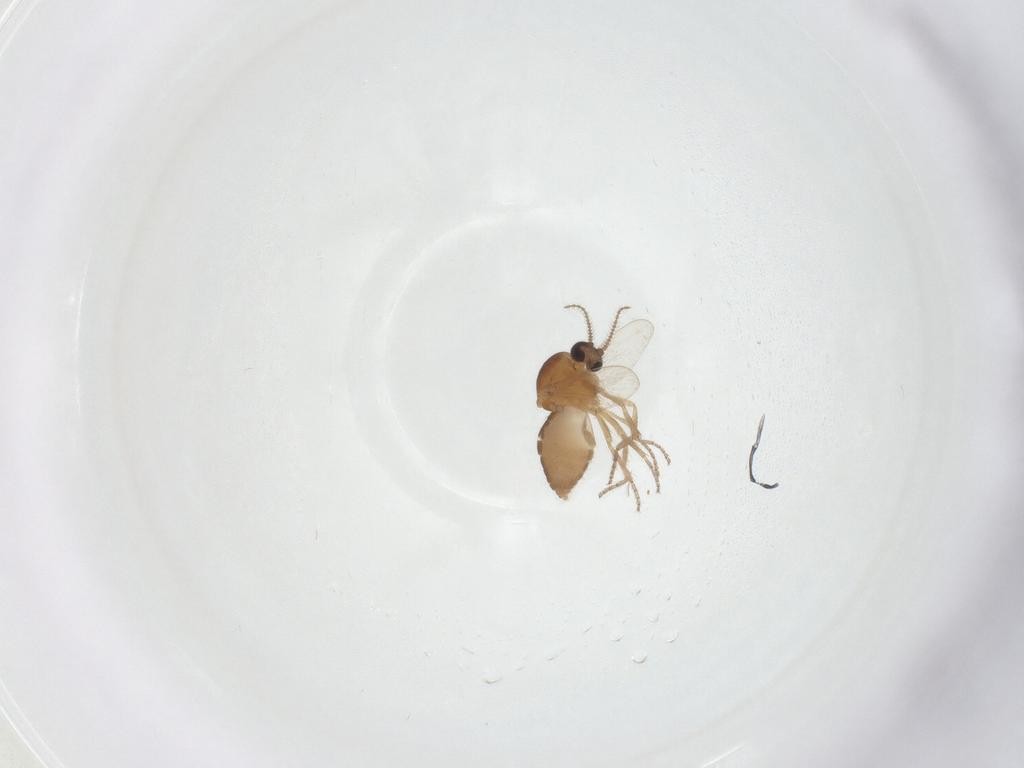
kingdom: Animalia
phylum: Arthropoda
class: Insecta
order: Diptera
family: Ceratopogonidae
